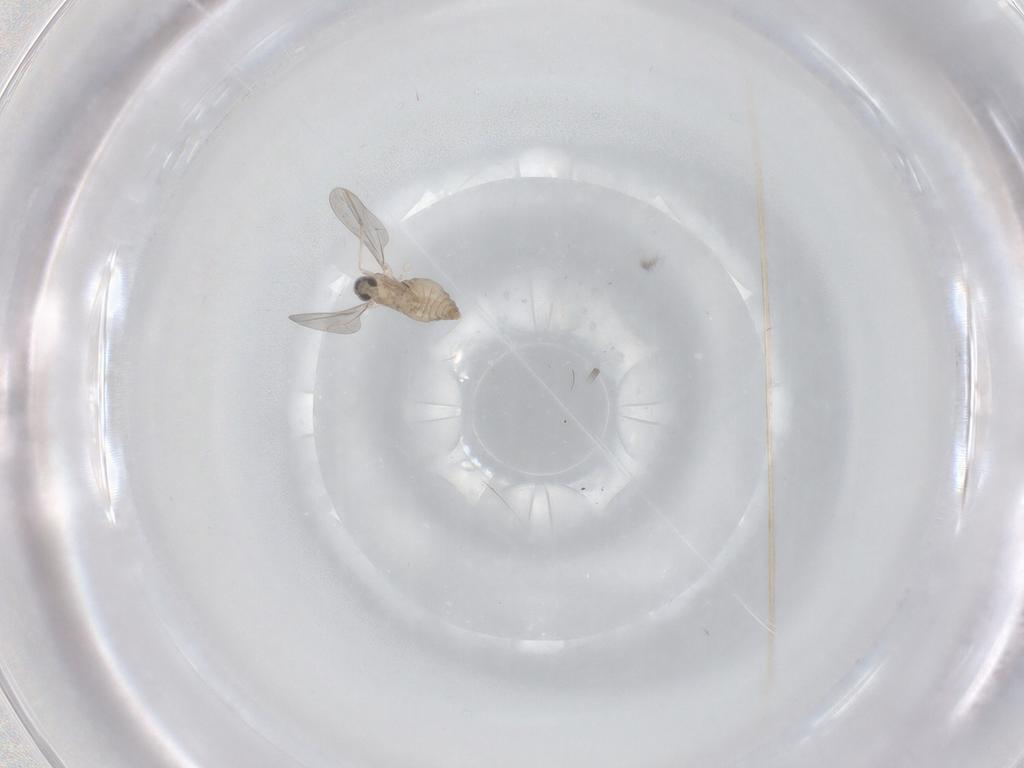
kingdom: Animalia
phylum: Arthropoda
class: Insecta
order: Diptera
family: Cecidomyiidae
